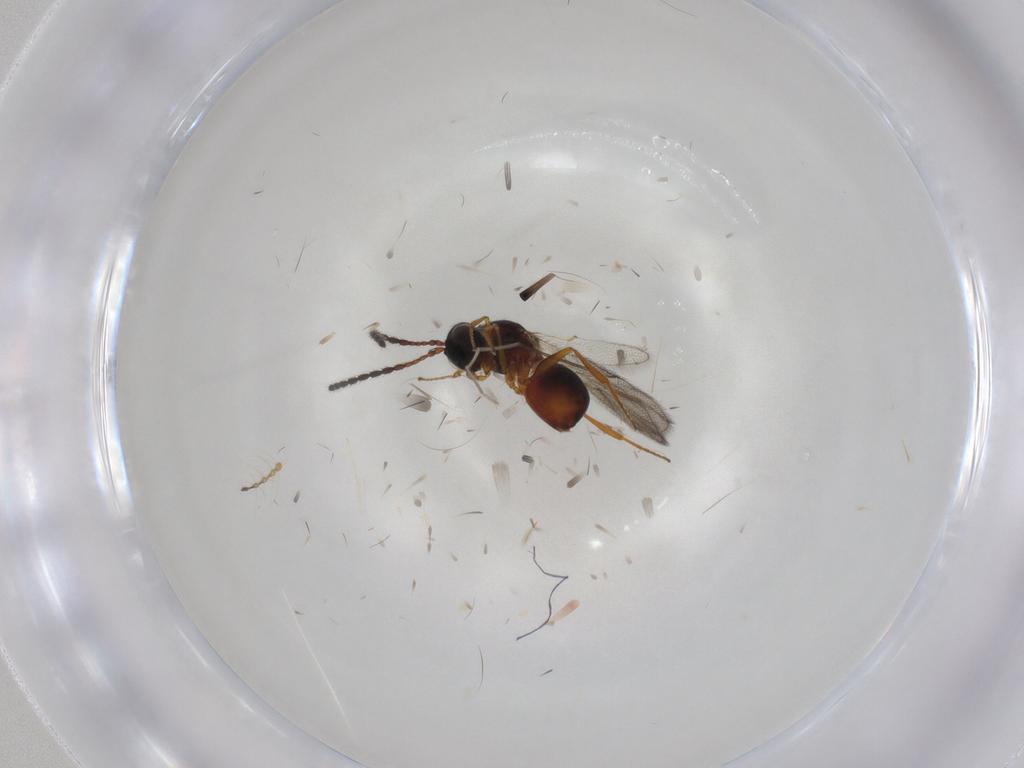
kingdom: Animalia
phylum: Arthropoda
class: Insecta
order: Hymenoptera
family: Figitidae
